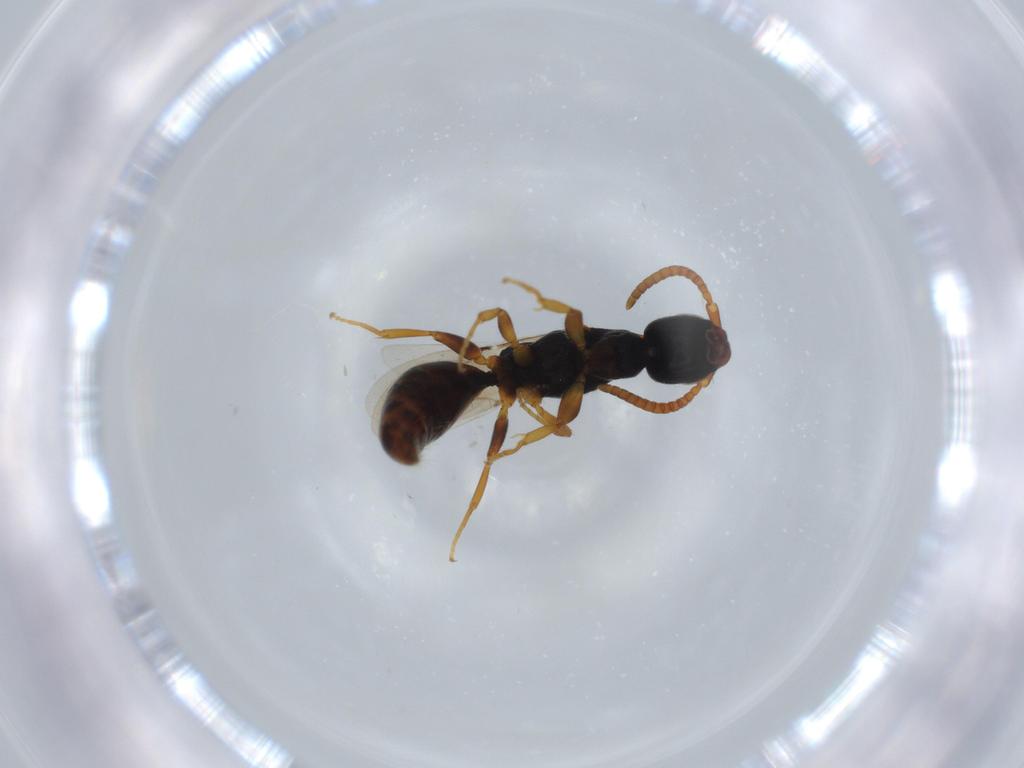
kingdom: Animalia
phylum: Arthropoda
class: Insecta
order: Hymenoptera
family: Bethylidae
